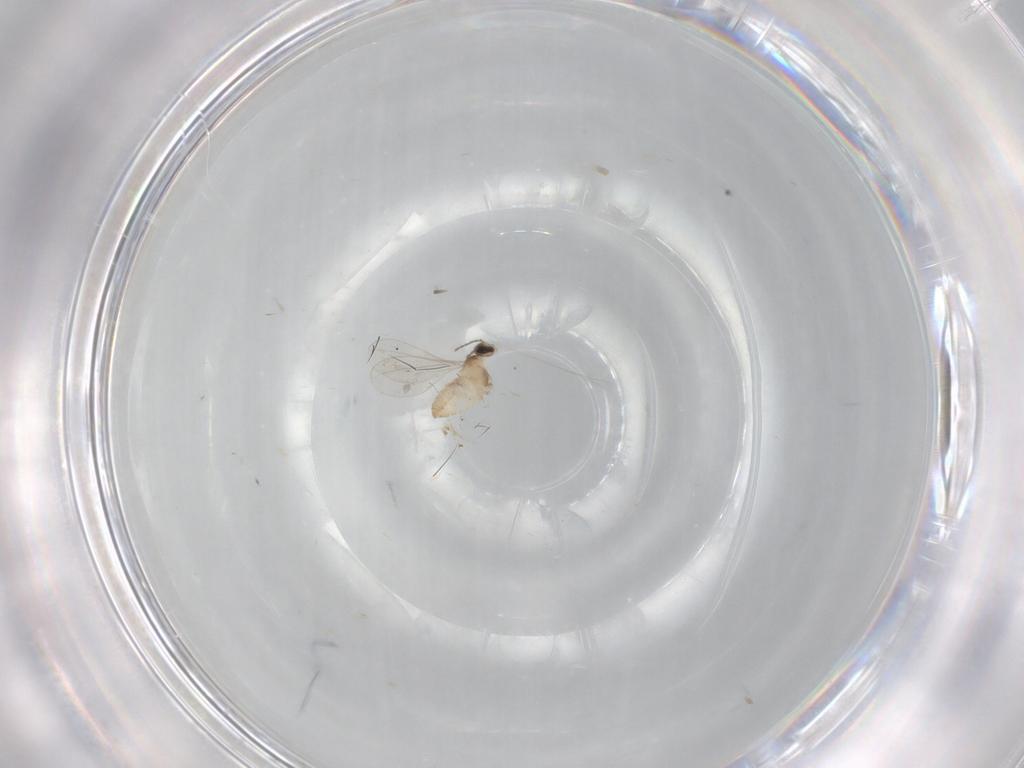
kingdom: Animalia
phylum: Arthropoda
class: Insecta
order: Diptera
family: Cecidomyiidae
